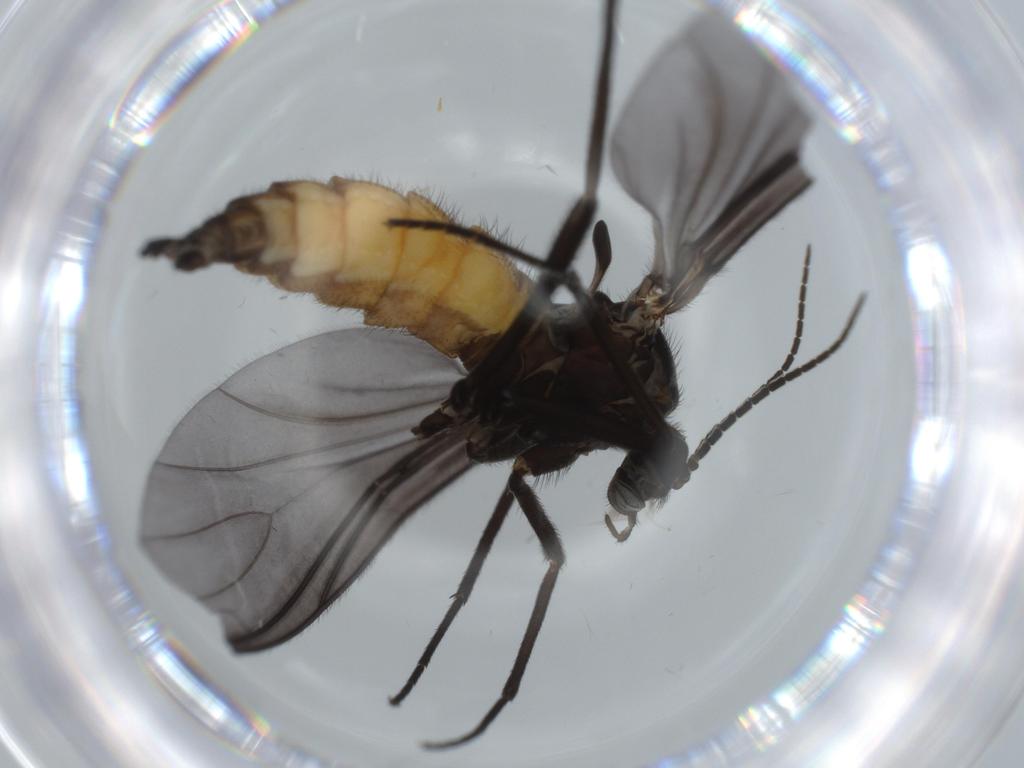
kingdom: Animalia
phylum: Arthropoda
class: Insecta
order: Diptera
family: Cecidomyiidae
